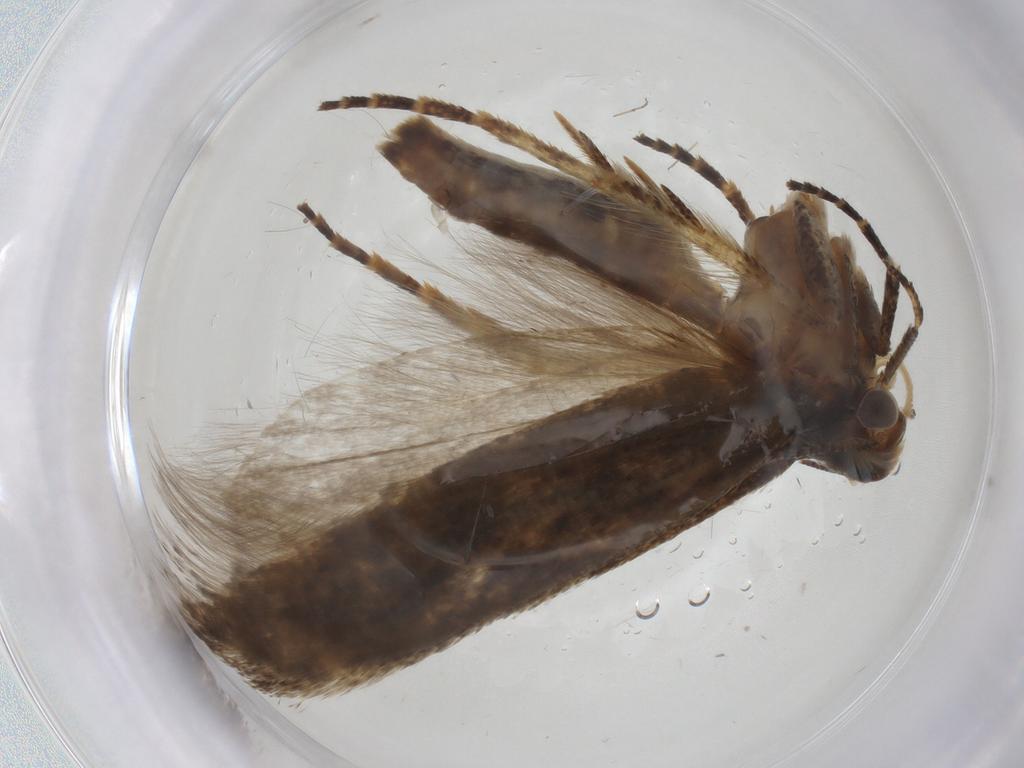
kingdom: Animalia
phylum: Arthropoda
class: Insecta
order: Lepidoptera
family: Gelechiidae
